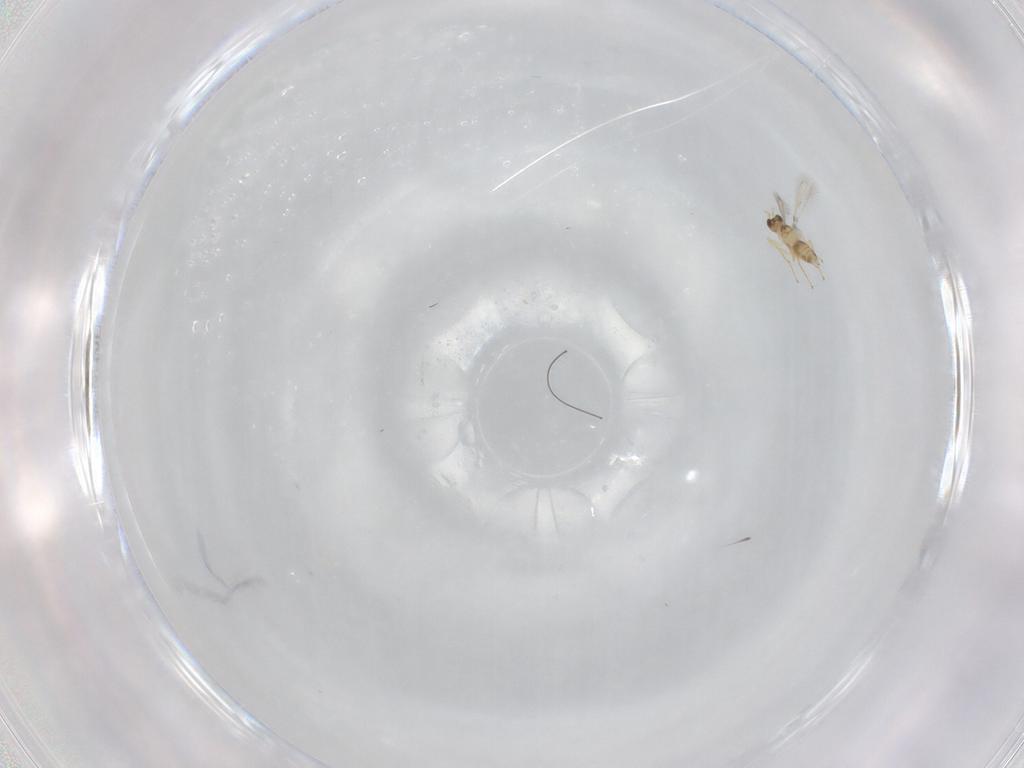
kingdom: Animalia
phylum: Arthropoda
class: Insecta
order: Hymenoptera
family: Mymaridae
